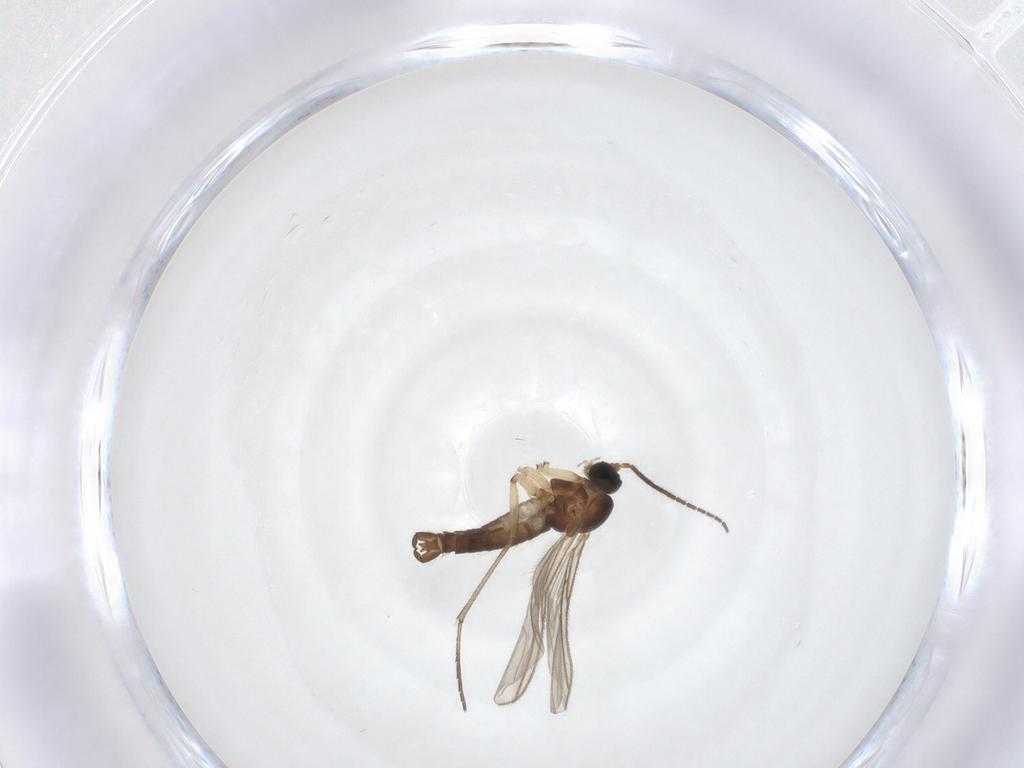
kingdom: Animalia
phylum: Arthropoda
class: Insecta
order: Diptera
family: Sciaridae
